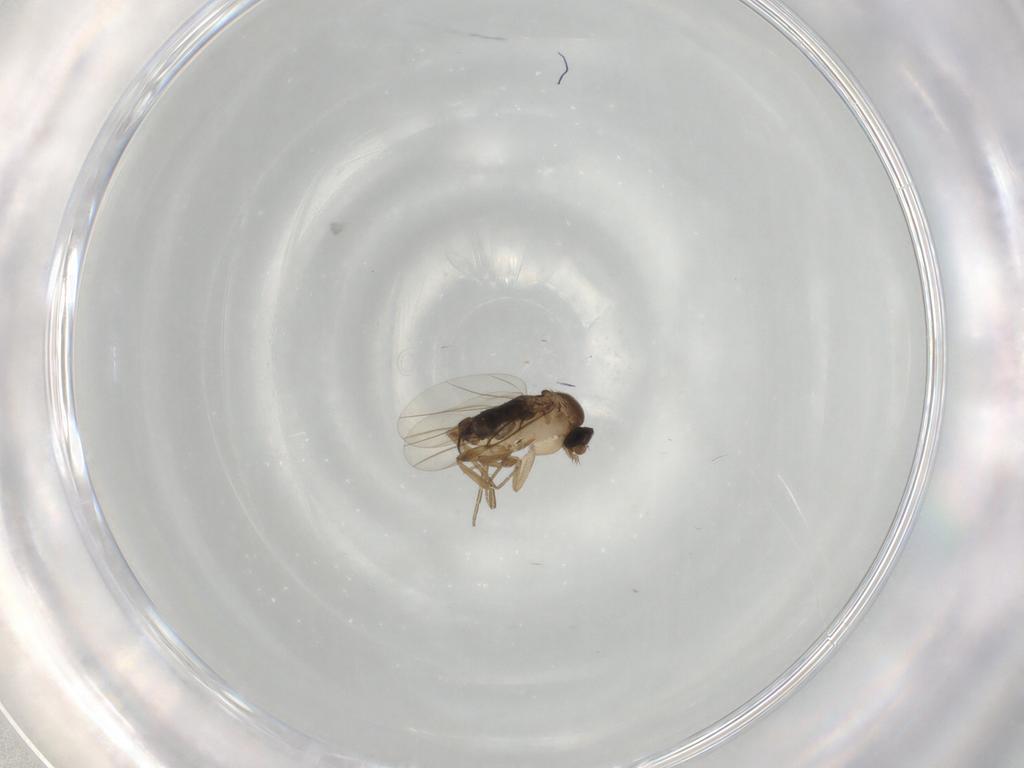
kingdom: Animalia
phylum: Arthropoda
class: Insecta
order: Diptera
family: Phoridae
